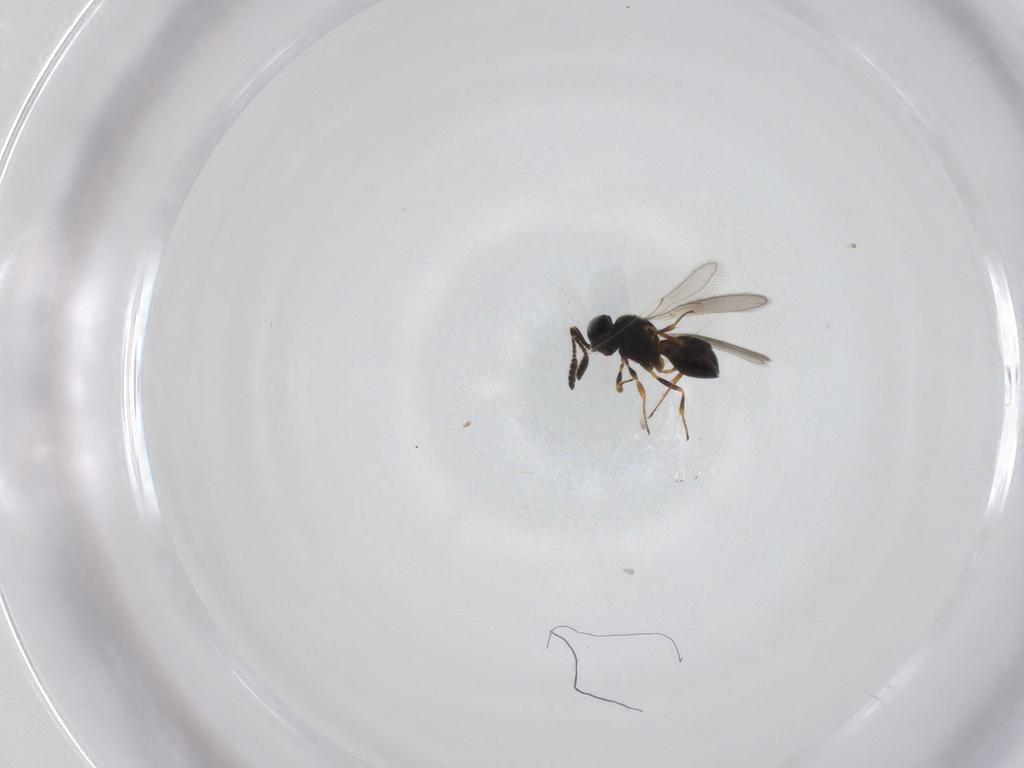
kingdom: Animalia
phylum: Arthropoda
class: Insecta
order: Hymenoptera
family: Scelionidae
